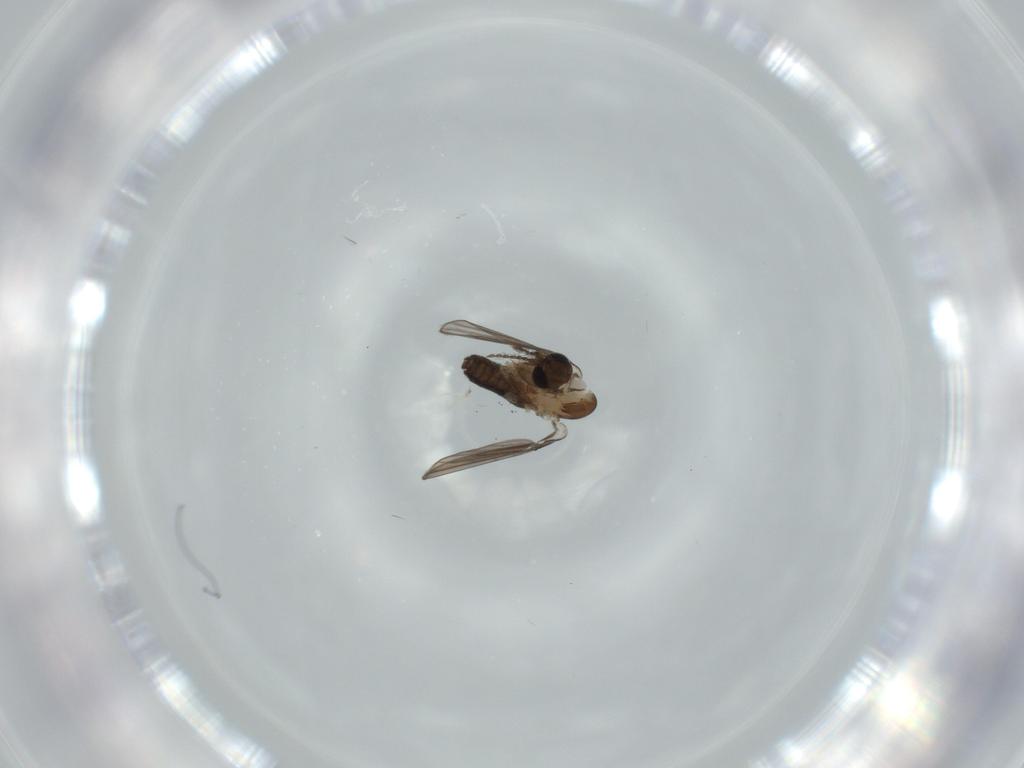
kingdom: Animalia
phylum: Arthropoda
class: Insecta
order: Diptera
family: Psychodidae
